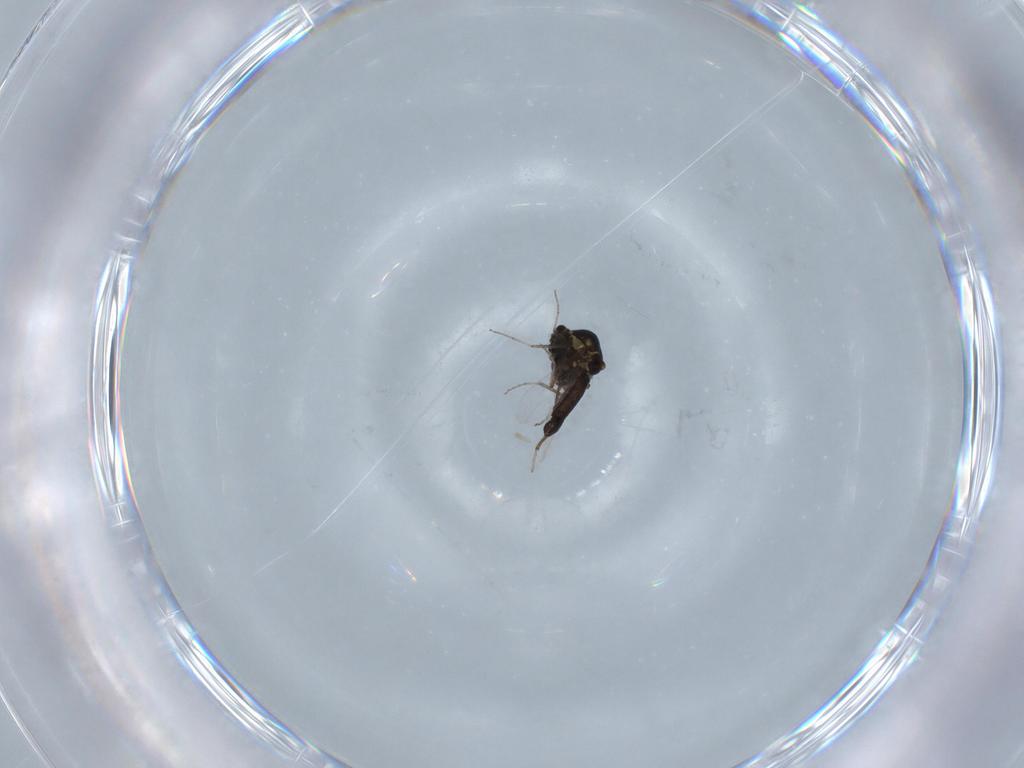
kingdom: Animalia
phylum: Arthropoda
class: Insecta
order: Diptera
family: Ceratopogonidae
